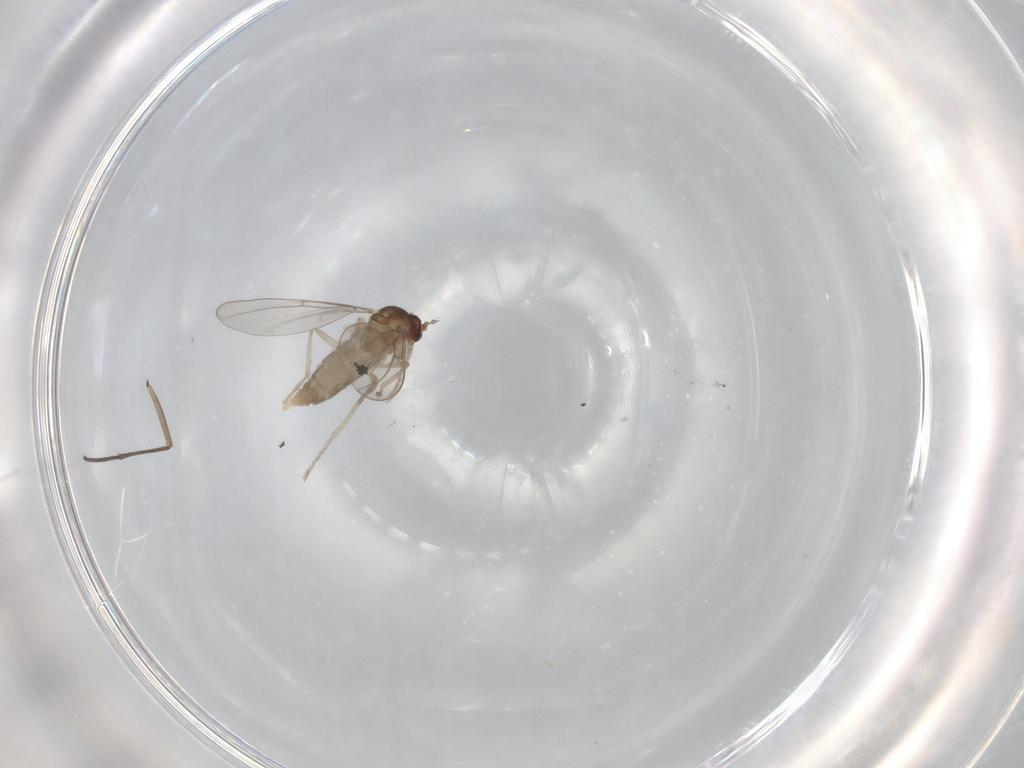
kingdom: Animalia
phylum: Arthropoda
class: Insecta
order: Diptera
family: Cecidomyiidae
